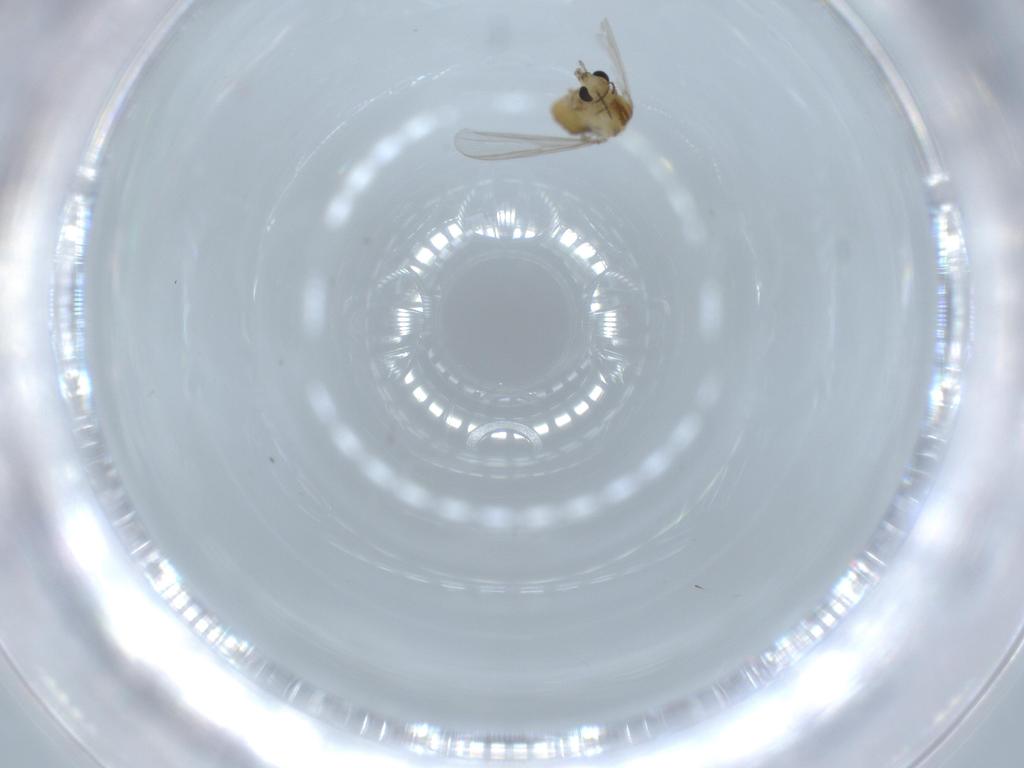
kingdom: Animalia
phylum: Arthropoda
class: Insecta
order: Diptera
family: Chironomidae
